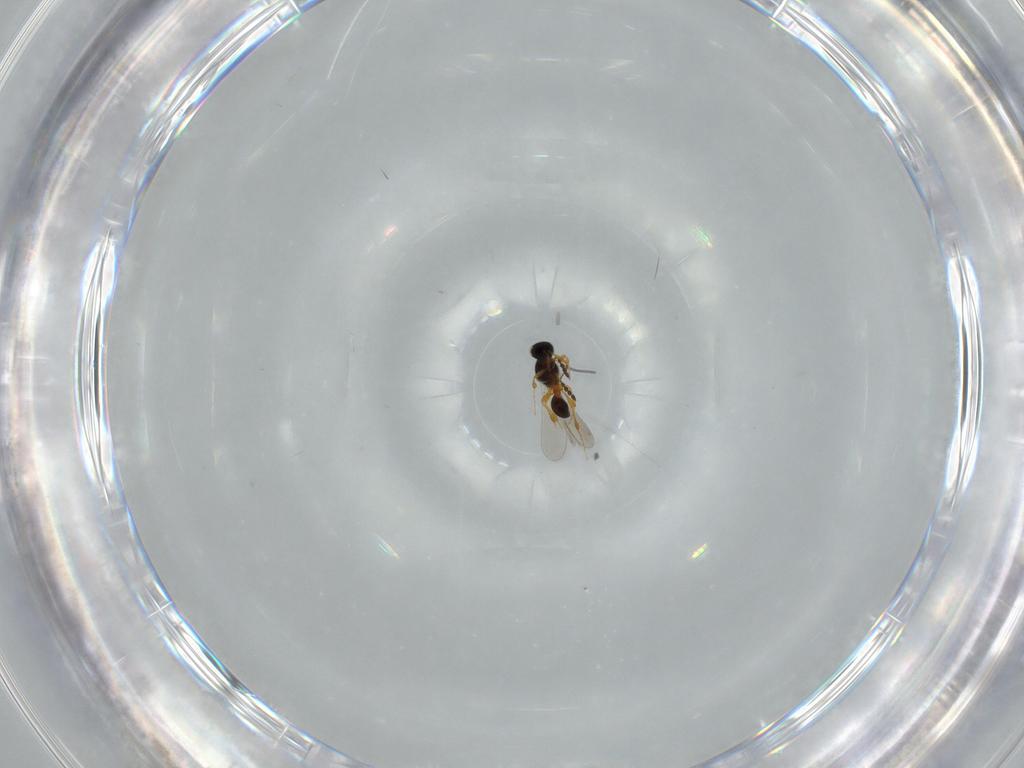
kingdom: Animalia
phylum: Arthropoda
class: Insecta
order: Hymenoptera
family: Platygastridae
